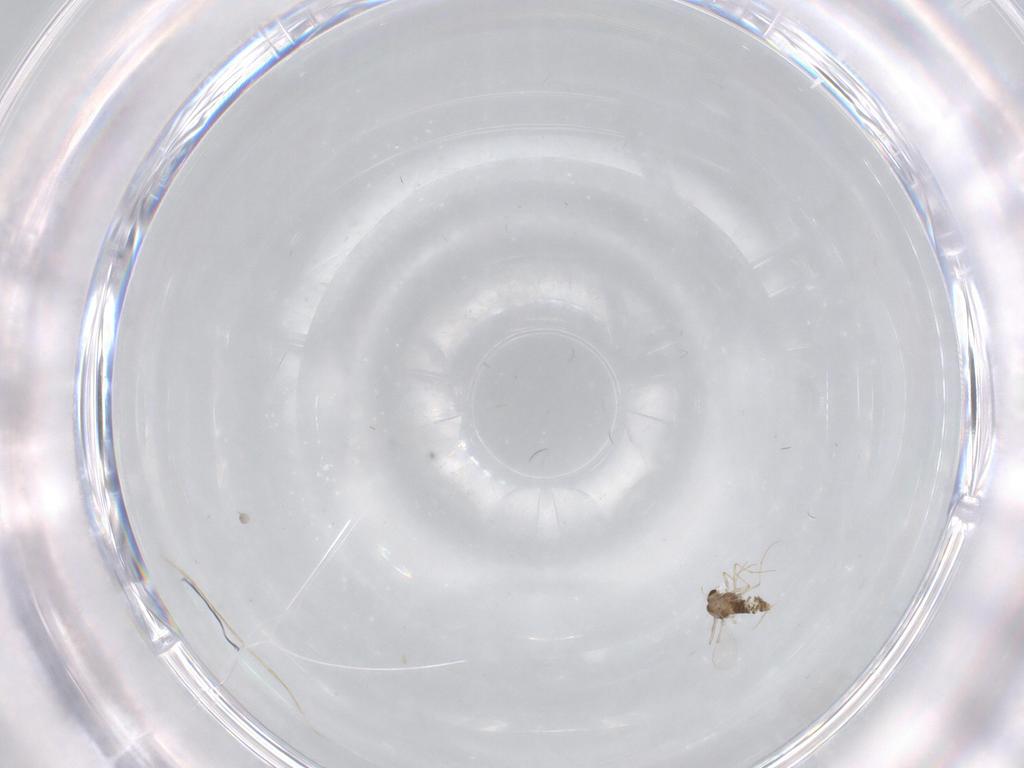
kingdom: Animalia
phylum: Arthropoda
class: Insecta
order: Diptera
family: Chironomidae
